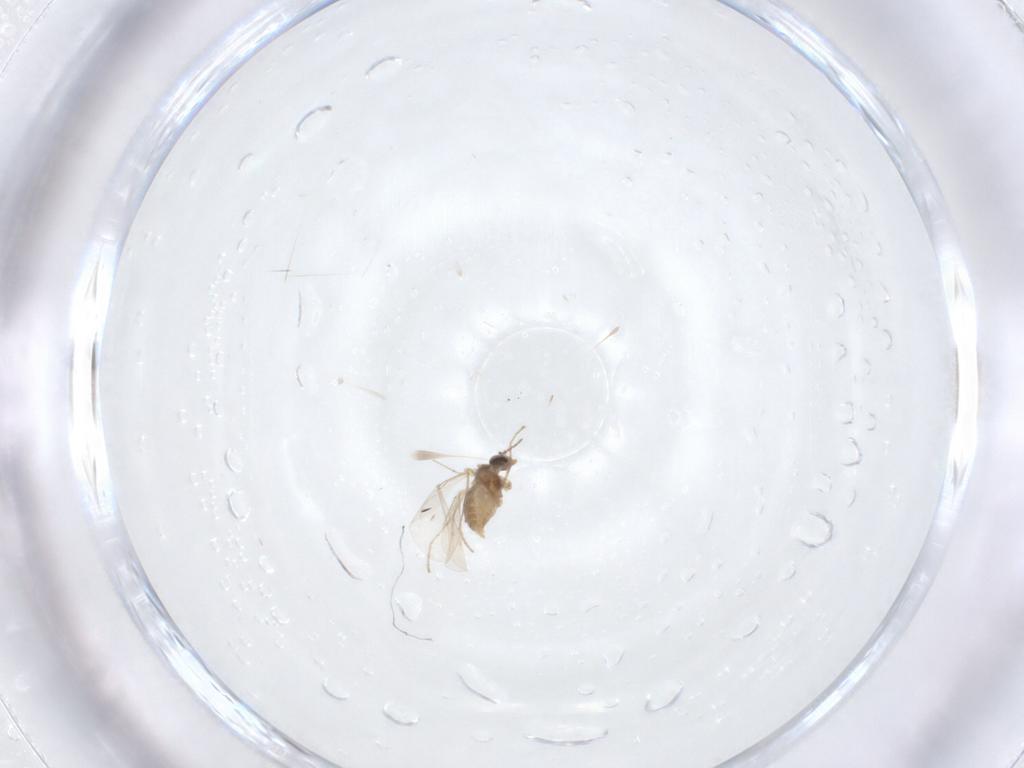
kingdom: Animalia
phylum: Arthropoda
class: Insecta
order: Diptera
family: Cecidomyiidae
